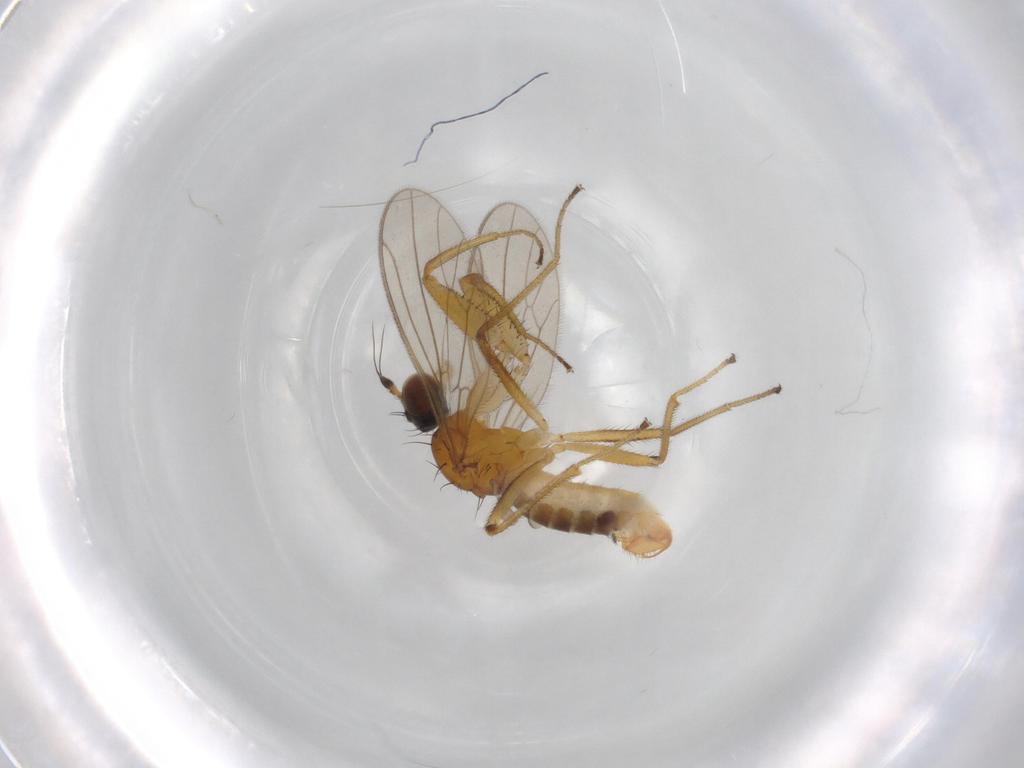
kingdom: Animalia
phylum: Arthropoda
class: Insecta
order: Diptera
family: Empididae
